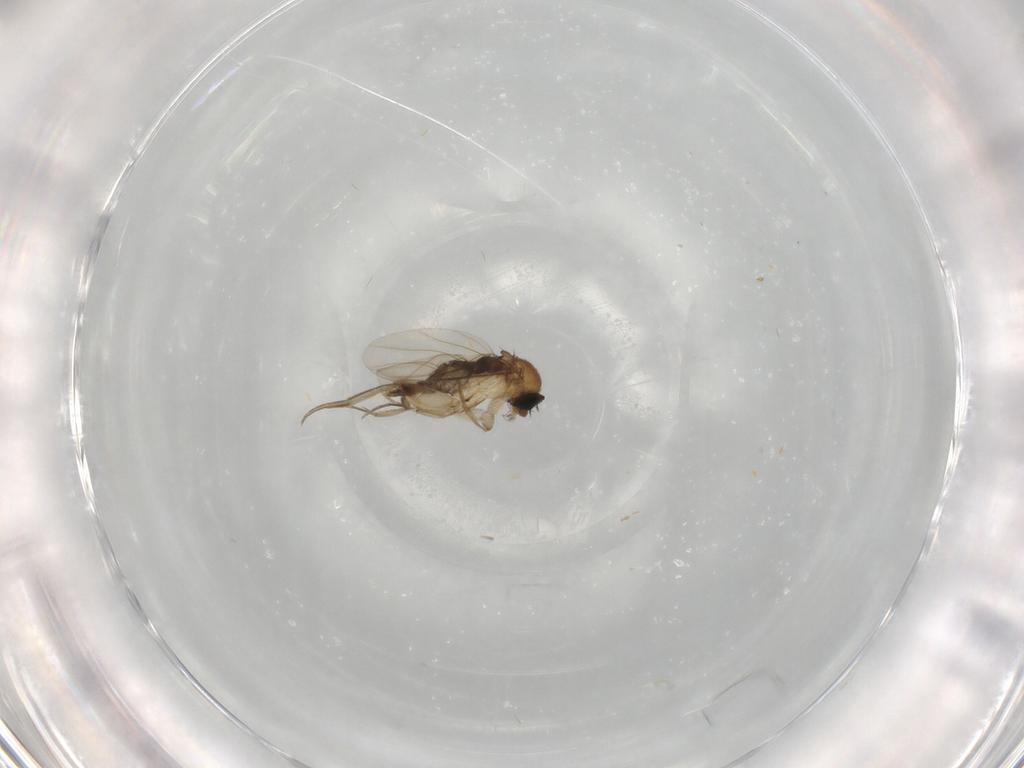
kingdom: Animalia
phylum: Arthropoda
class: Insecta
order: Diptera
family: Phoridae
